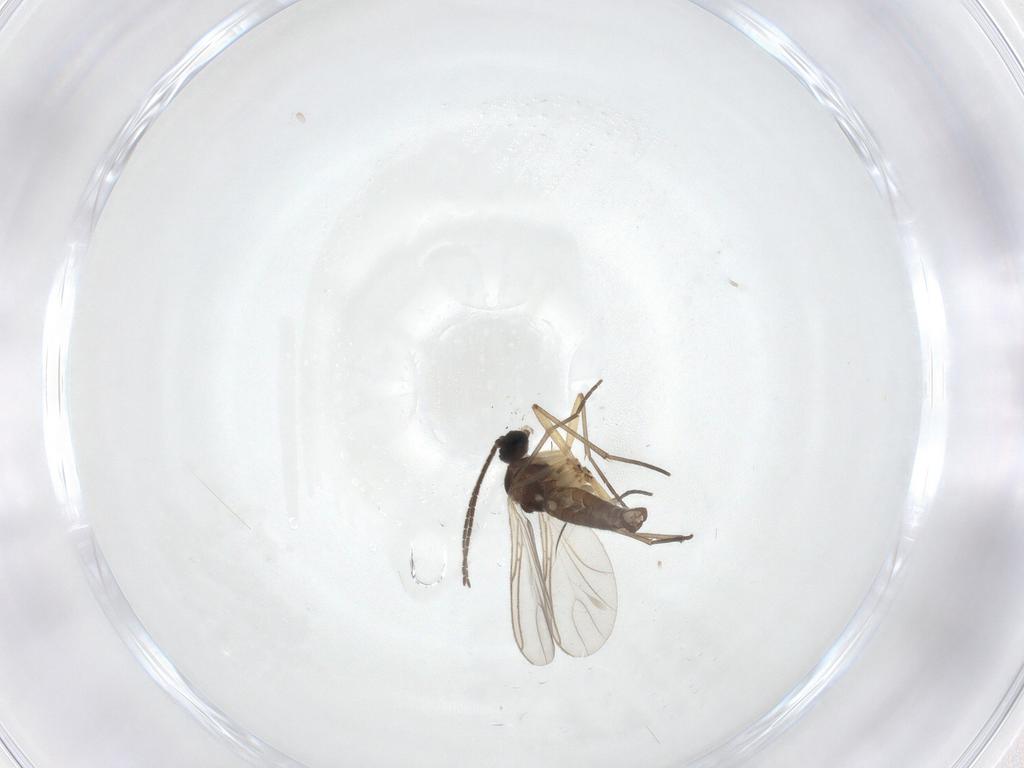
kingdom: Animalia
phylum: Arthropoda
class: Insecta
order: Diptera
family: Sciaridae
